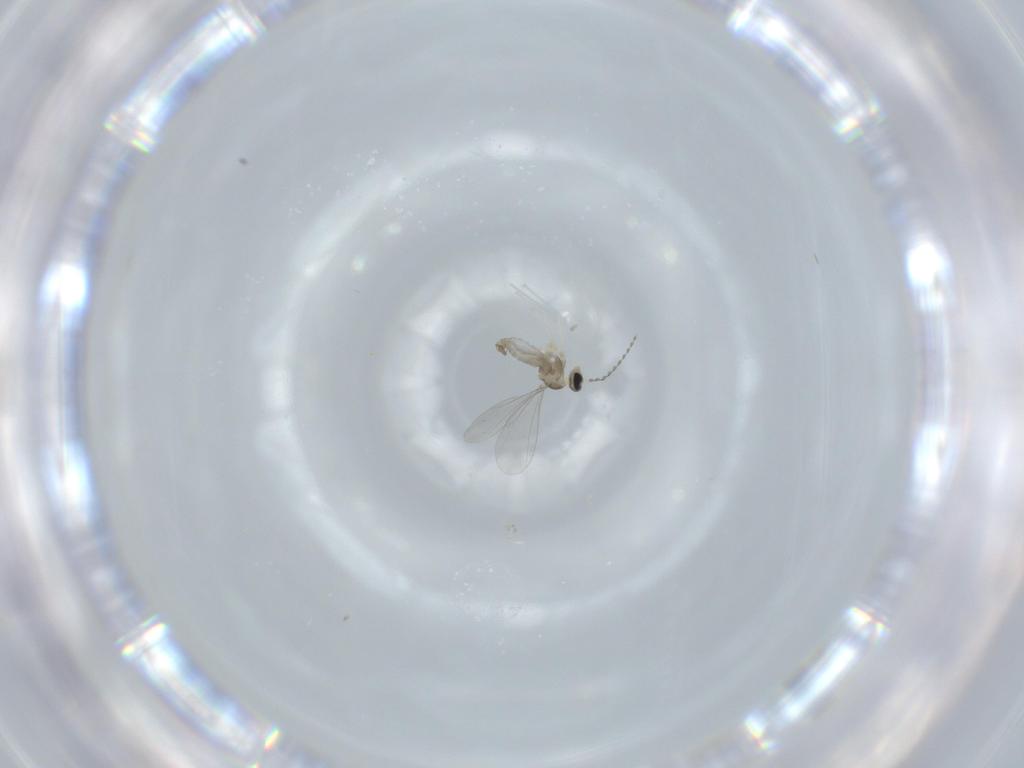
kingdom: Animalia
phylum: Arthropoda
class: Insecta
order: Diptera
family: Cecidomyiidae
